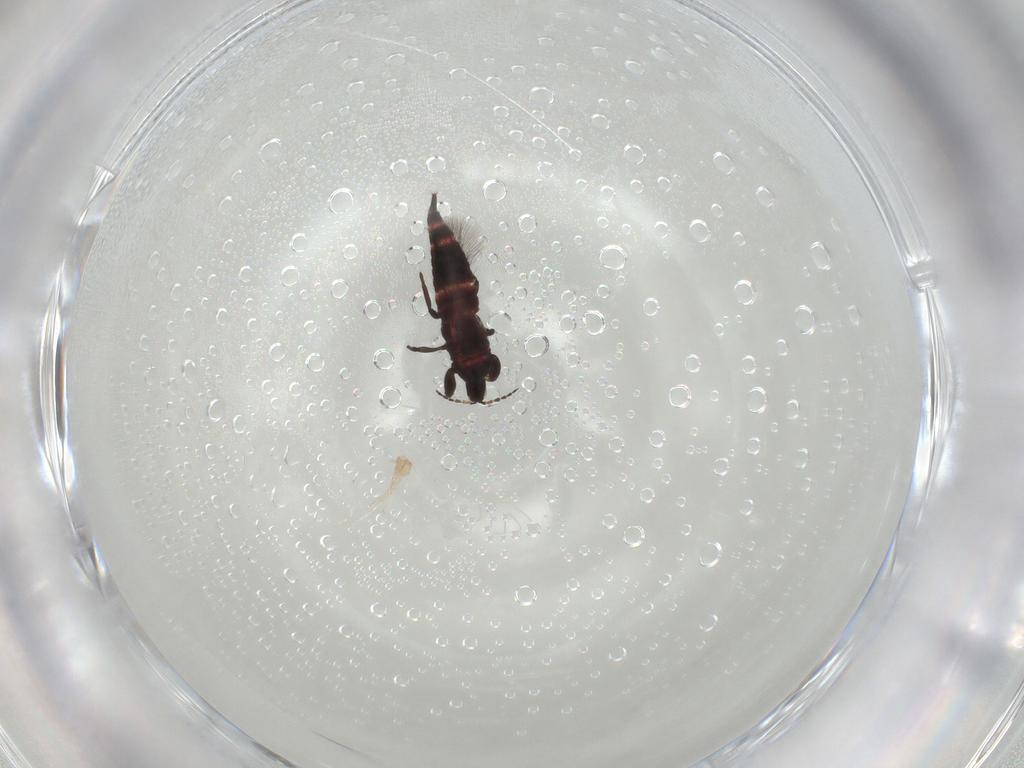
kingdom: Animalia
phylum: Arthropoda
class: Insecta
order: Thysanoptera
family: Phlaeothripidae
